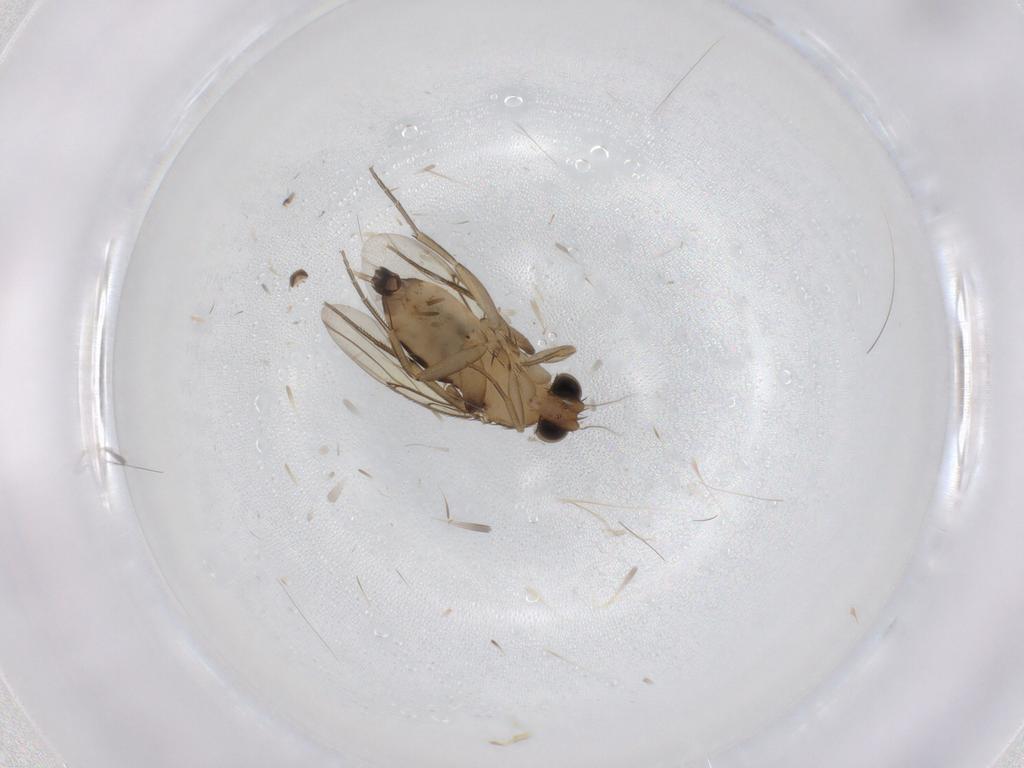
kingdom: Animalia
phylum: Arthropoda
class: Insecta
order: Diptera
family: Phoridae
